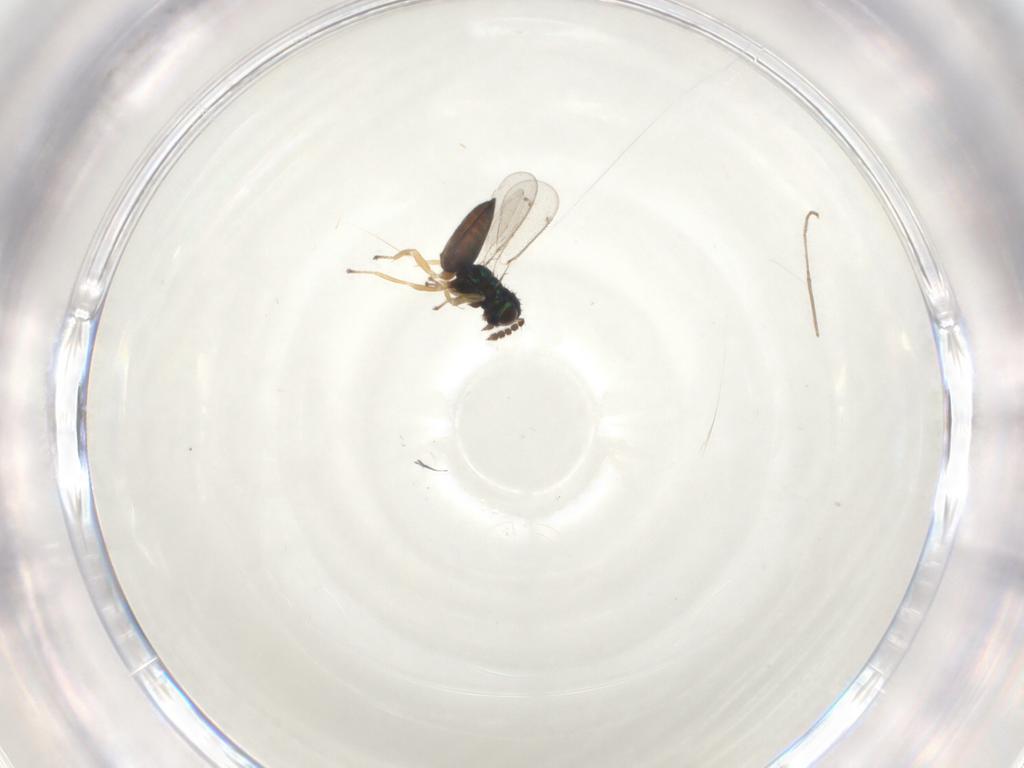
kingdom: Animalia
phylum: Arthropoda
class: Insecta
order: Hymenoptera
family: Eulophidae
